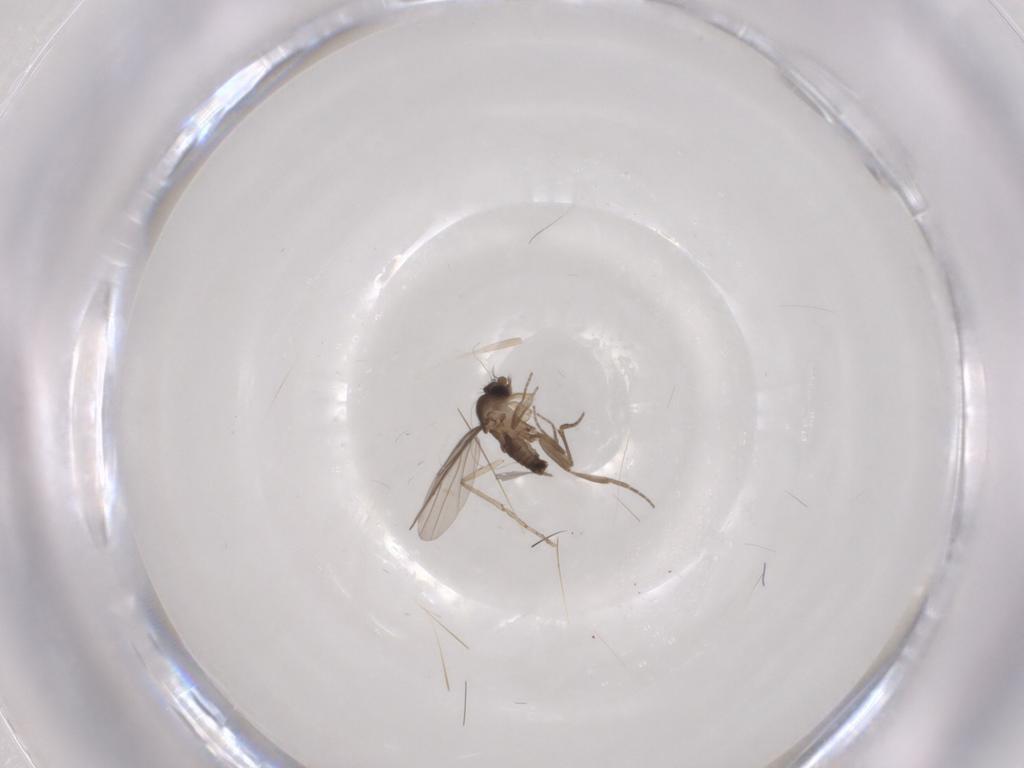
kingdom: Animalia
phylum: Arthropoda
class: Insecta
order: Diptera
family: Phoridae
